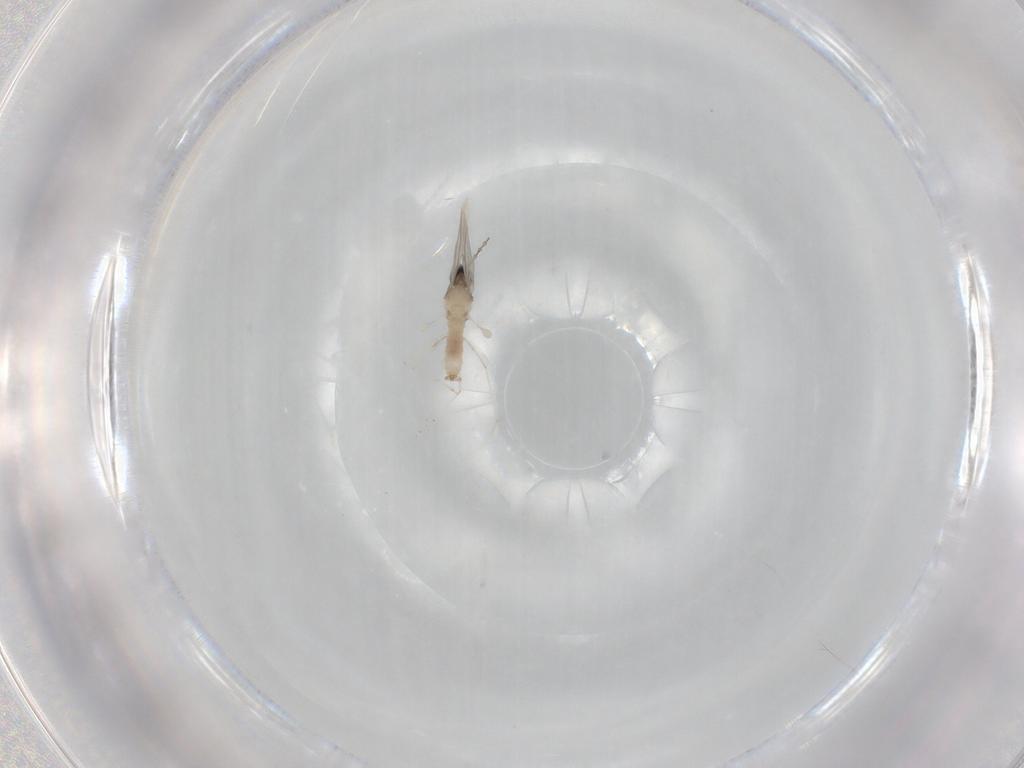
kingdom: Animalia
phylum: Arthropoda
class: Insecta
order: Diptera
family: Cecidomyiidae
